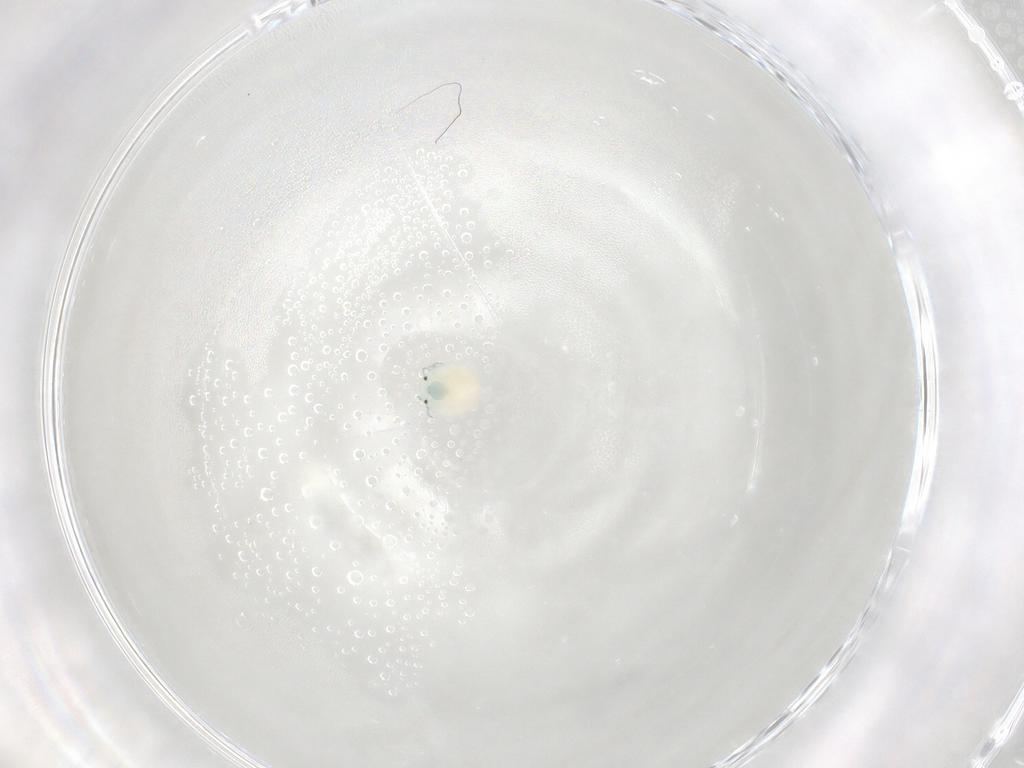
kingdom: Animalia
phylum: Arthropoda
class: Arachnida
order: Trombidiformes
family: Arrenuridae
